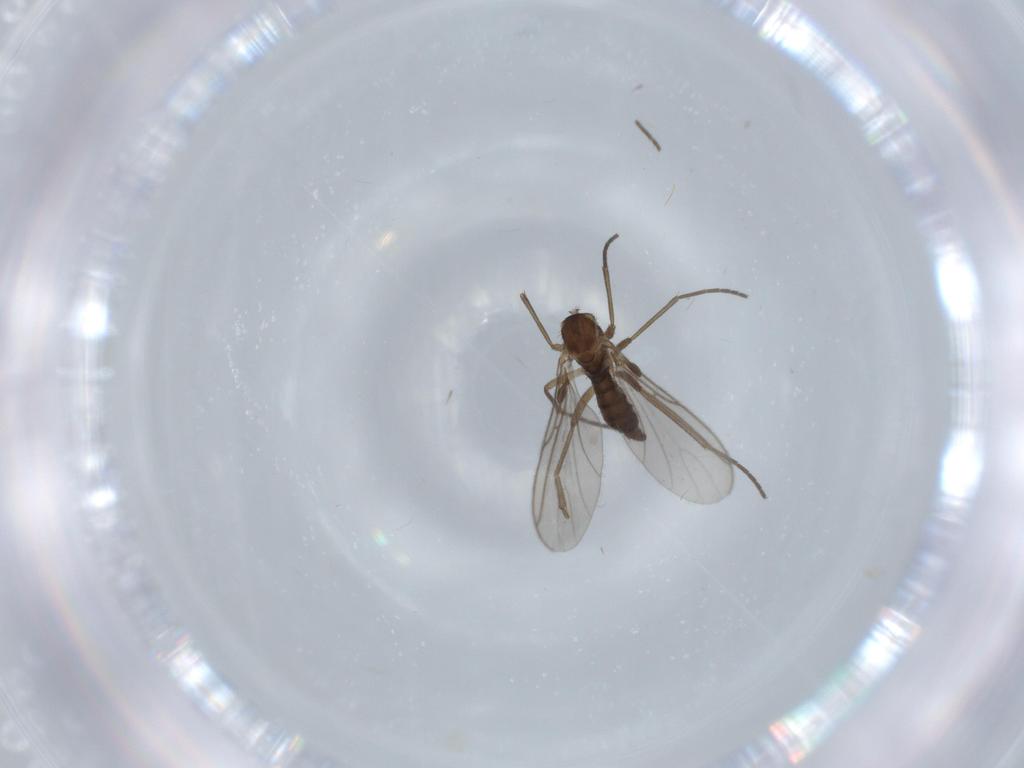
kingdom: Animalia
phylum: Arthropoda
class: Insecta
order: Diptera
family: Sciaridae
